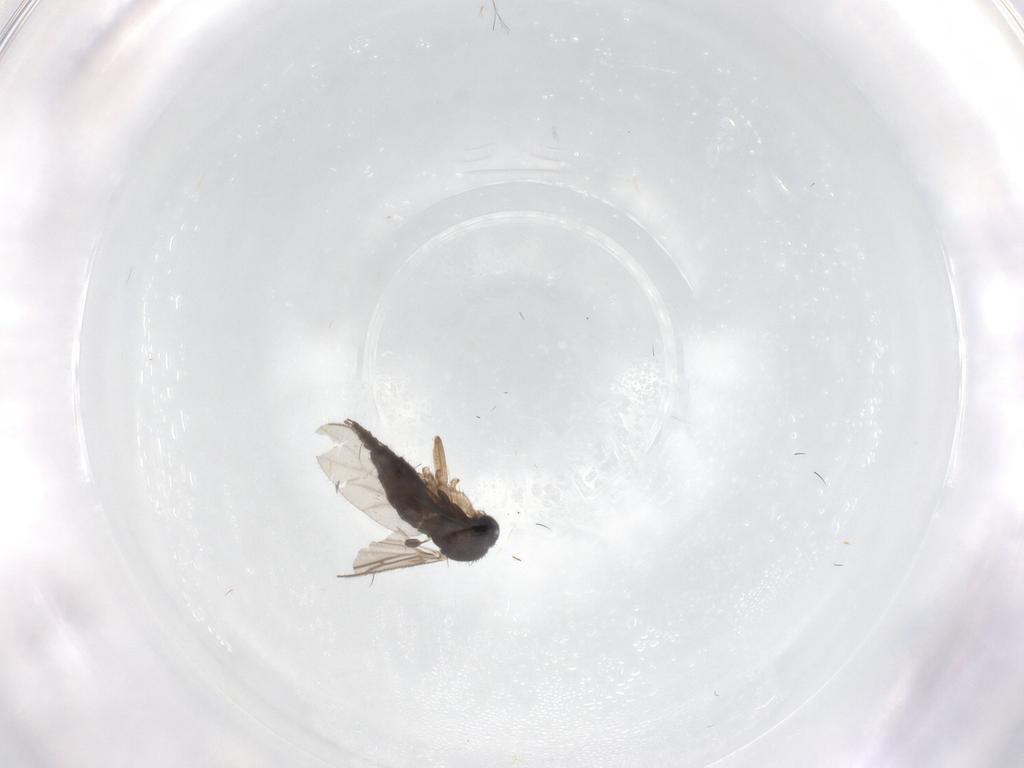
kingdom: Animalia
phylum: Arthropoda
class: Insecta
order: Diptera
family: Sciaridae
